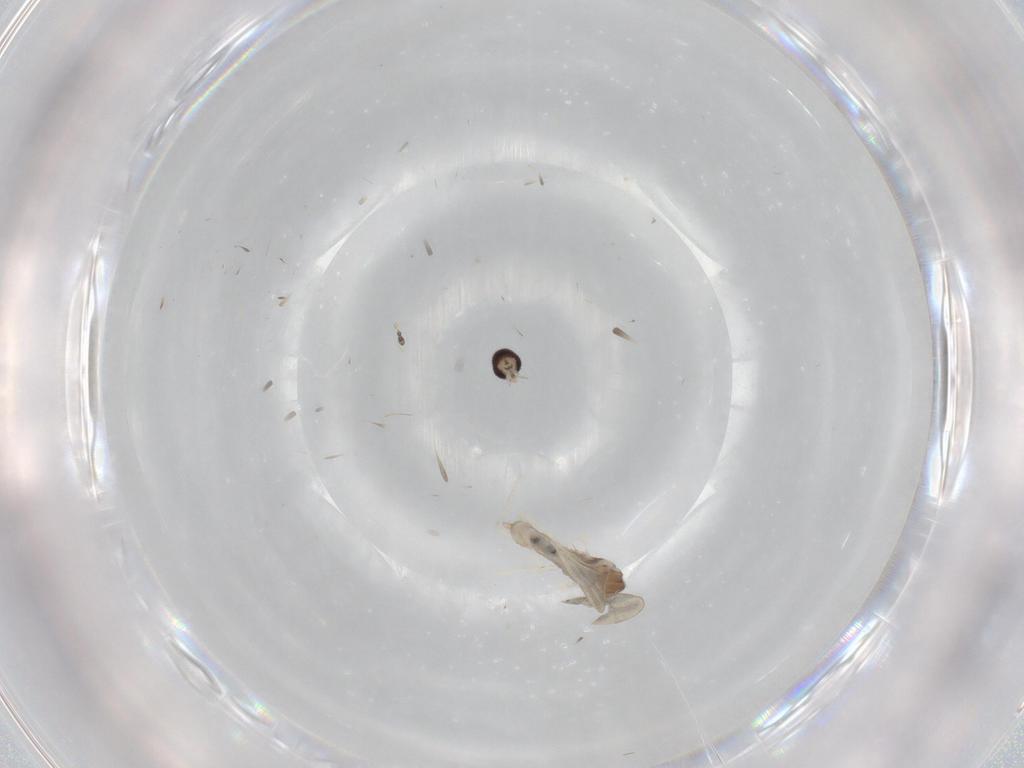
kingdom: Animalia
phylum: Arthropoda
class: Insecta
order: Diptera
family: Cecidomyiidae
